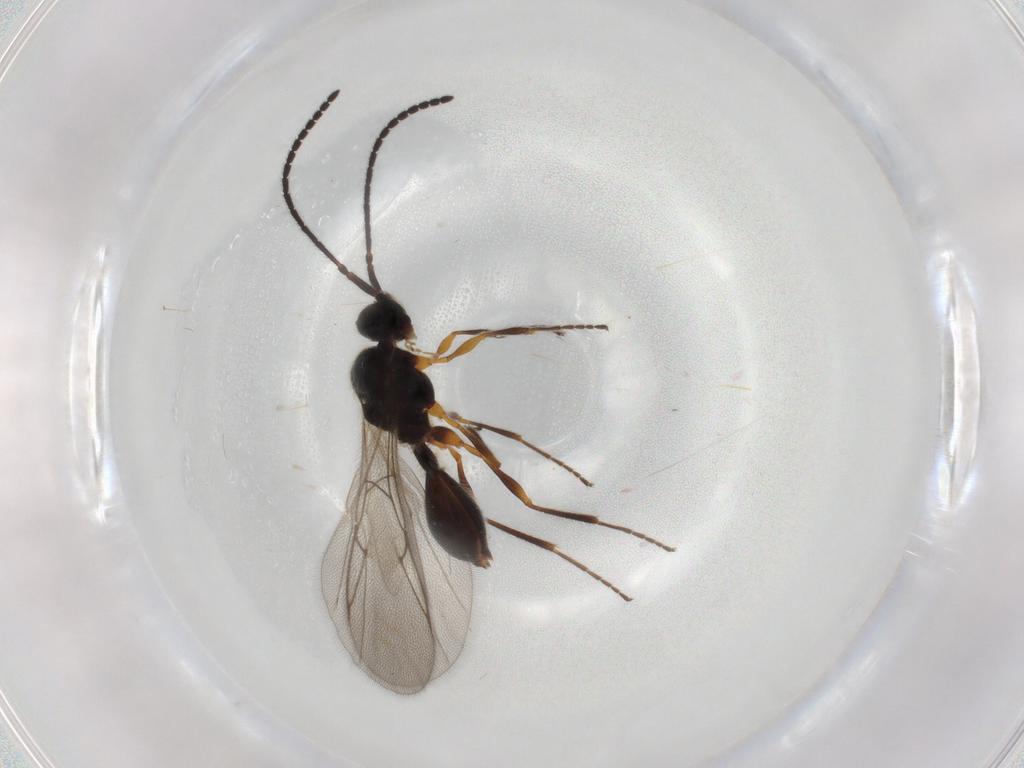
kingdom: Animalia
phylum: Arthropoda
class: Insecta
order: Hymenoptera
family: Diapriidae
